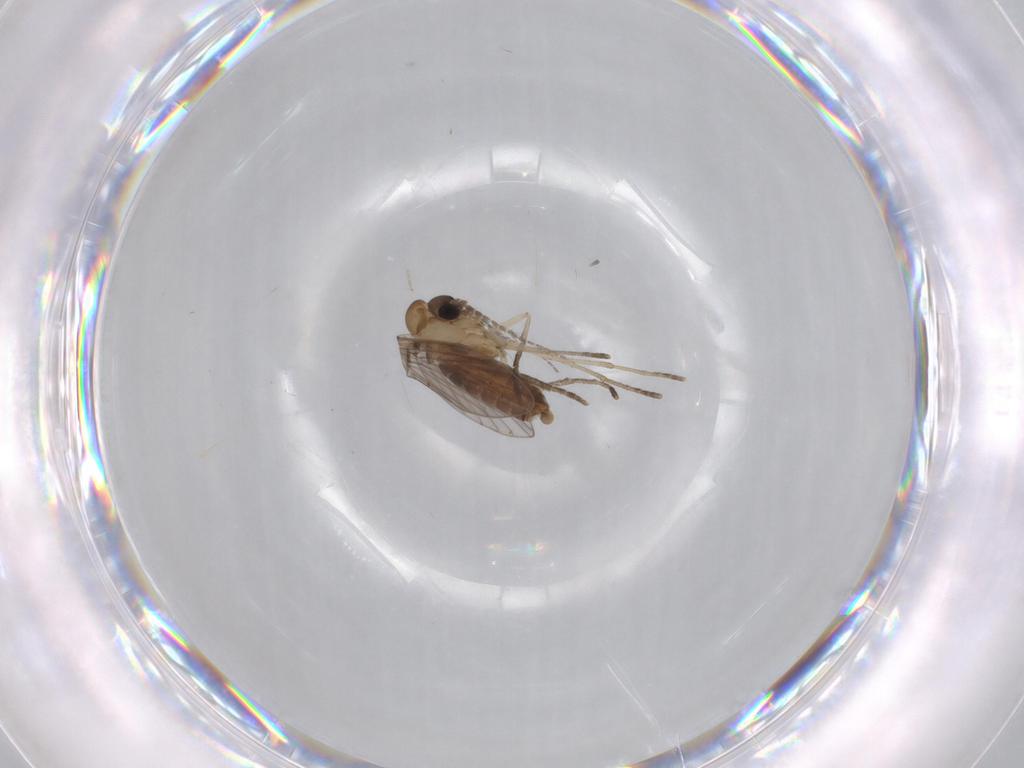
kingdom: Animalia
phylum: Arthropoda
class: Insecta
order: Diptera
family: Chironomidae
